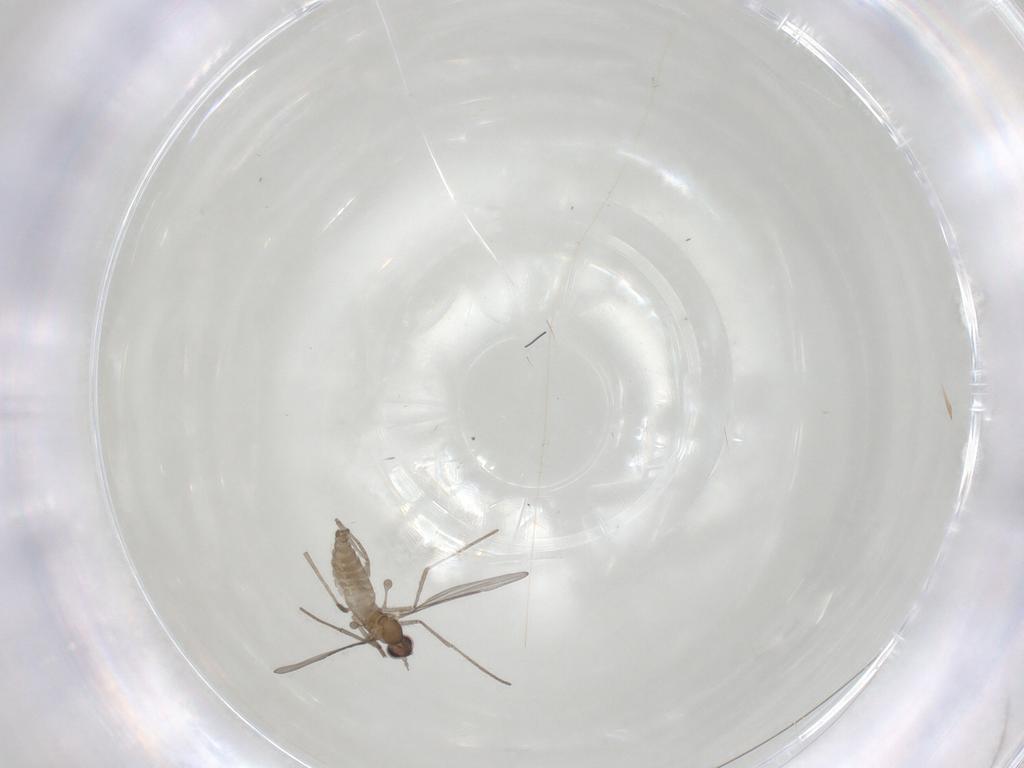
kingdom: Animalia
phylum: Arthropoda
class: Insecta
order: Diptera
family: Cecidomyiidae
